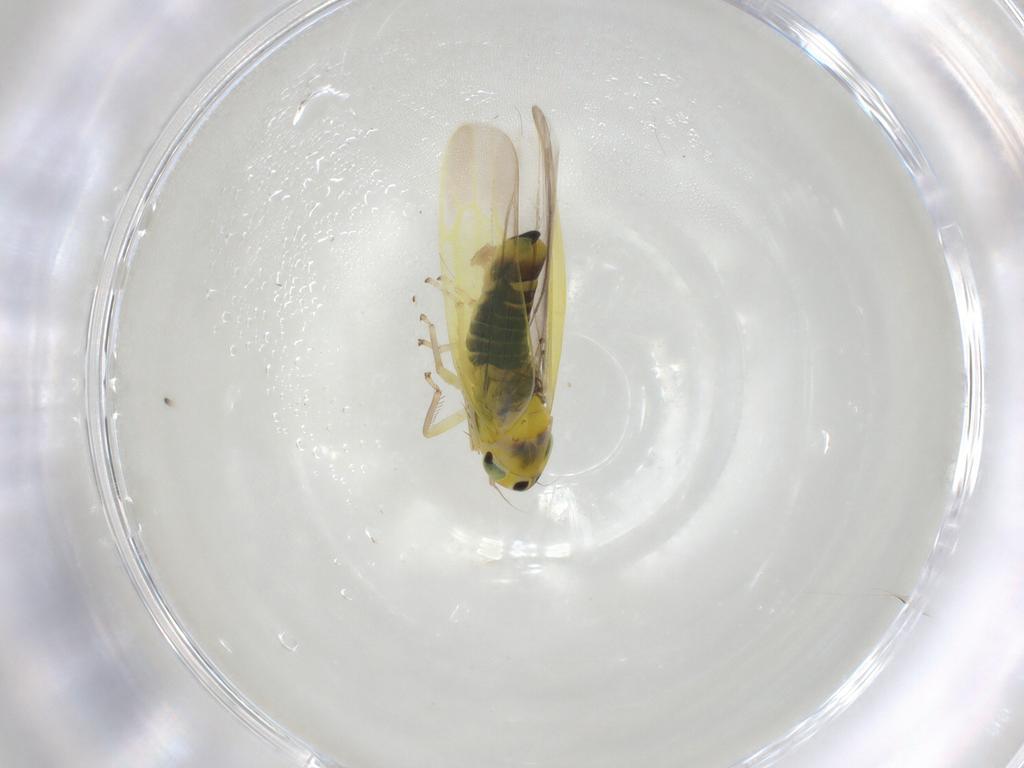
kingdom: Animalia
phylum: Arthropoda
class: Insecta
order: Hemiptera
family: Cicadellidae
